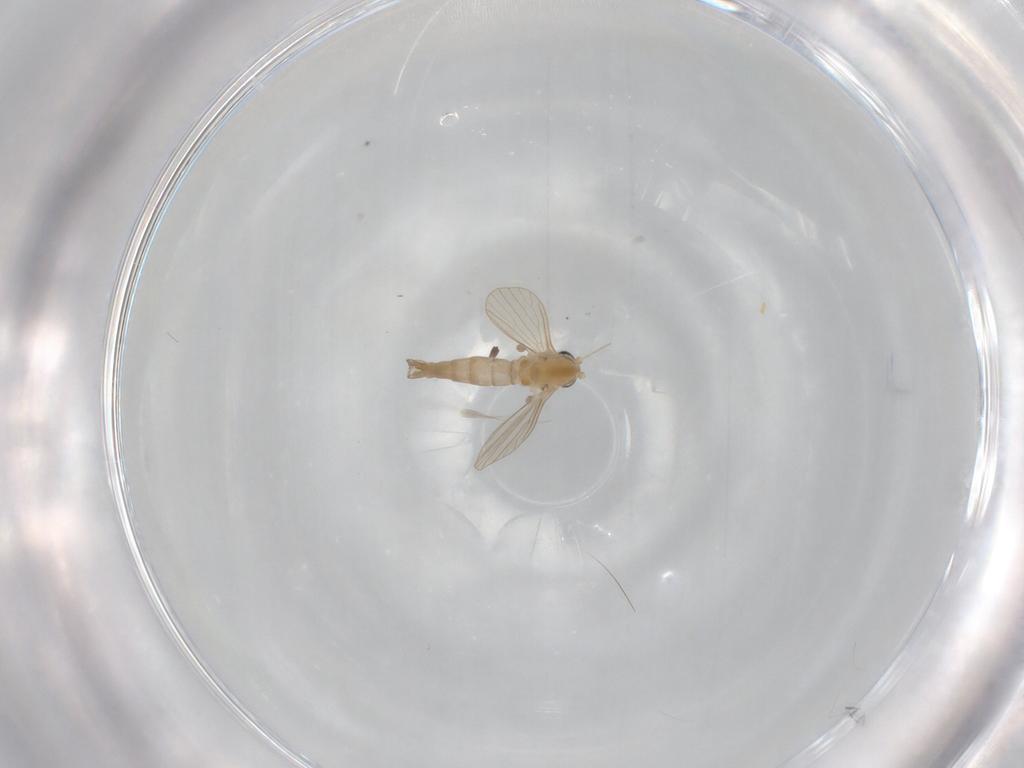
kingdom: Animalia
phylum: Arthropoda
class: Insecta
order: Diptera
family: Psychodidae
